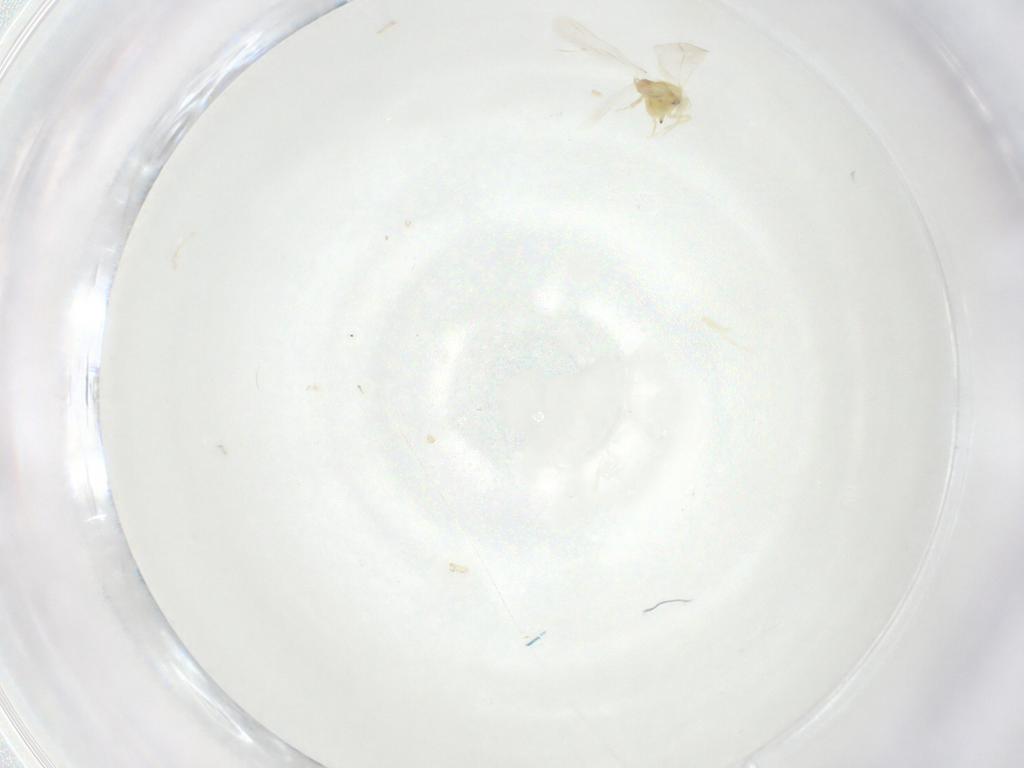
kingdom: Animalia
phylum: Arthropoda
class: Insecta
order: Hemiptera
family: Aleyrodidae
